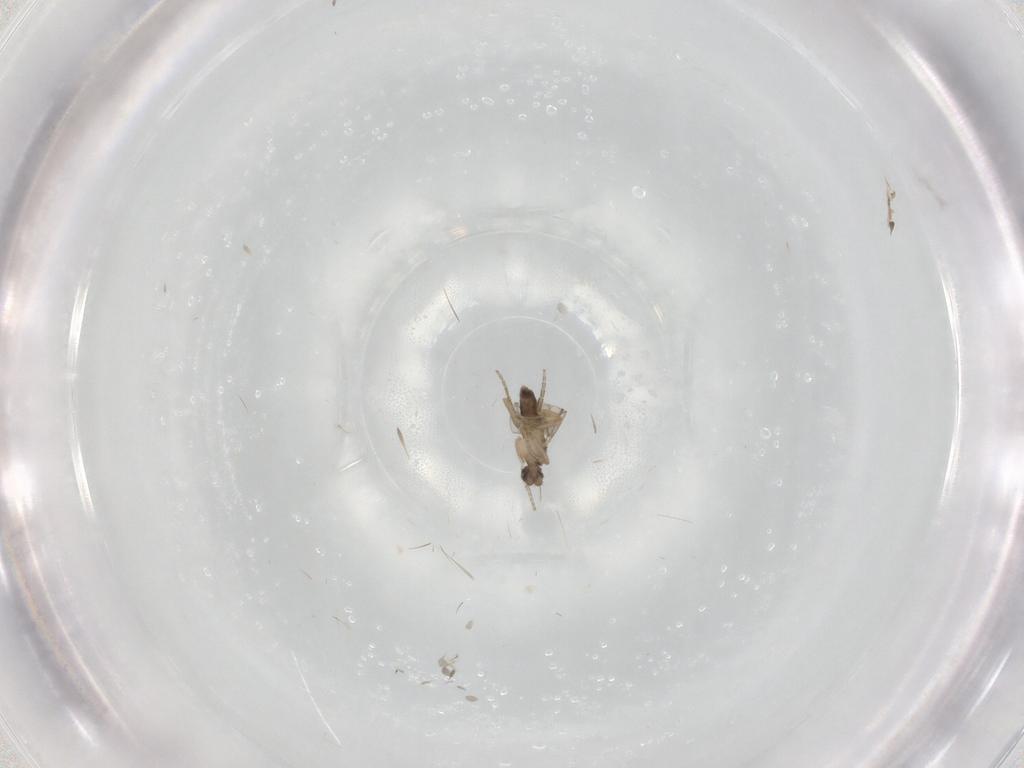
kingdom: Animalia
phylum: Arthropoda
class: Insecta
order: Diptera
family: Phoridae
